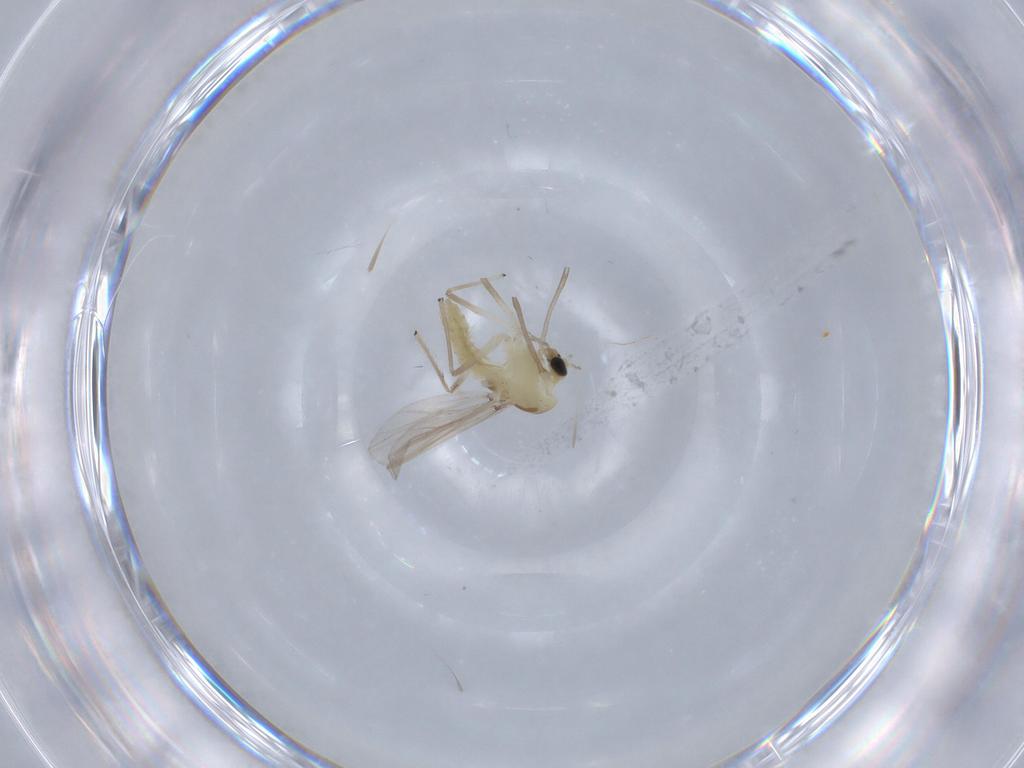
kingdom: Animalia
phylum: Arthropoda
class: Insecta
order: Diptera
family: Chironomidae
